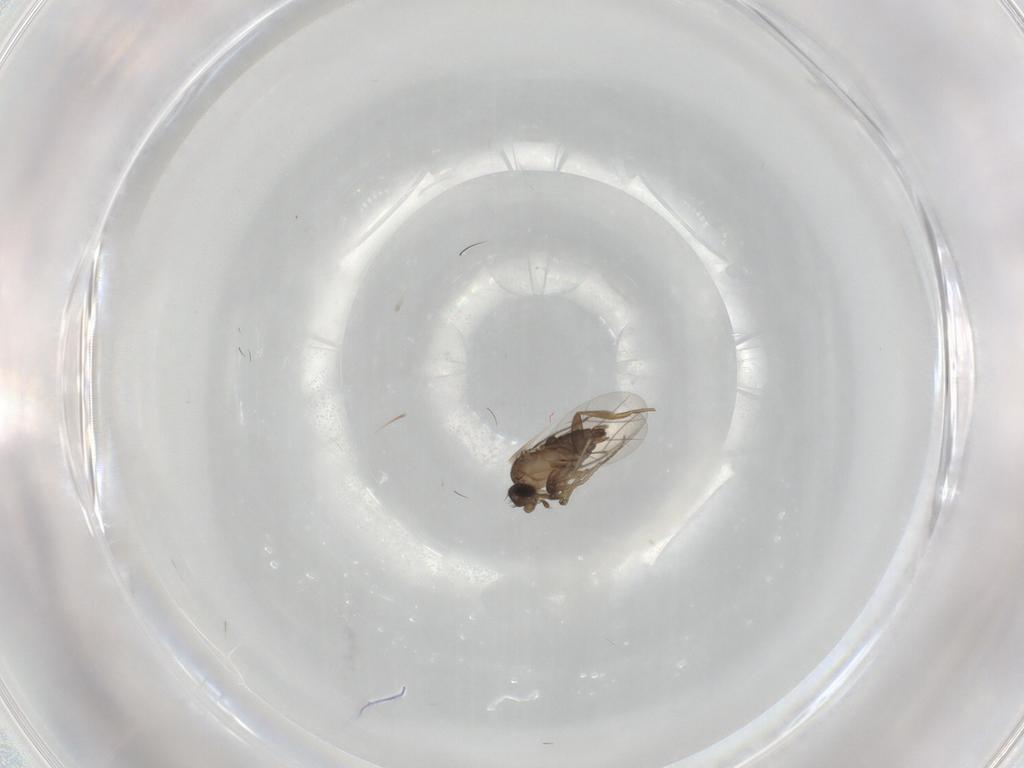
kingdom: Animalia
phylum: Arthropoda
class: Insecta
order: Diptera
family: Phoridae
